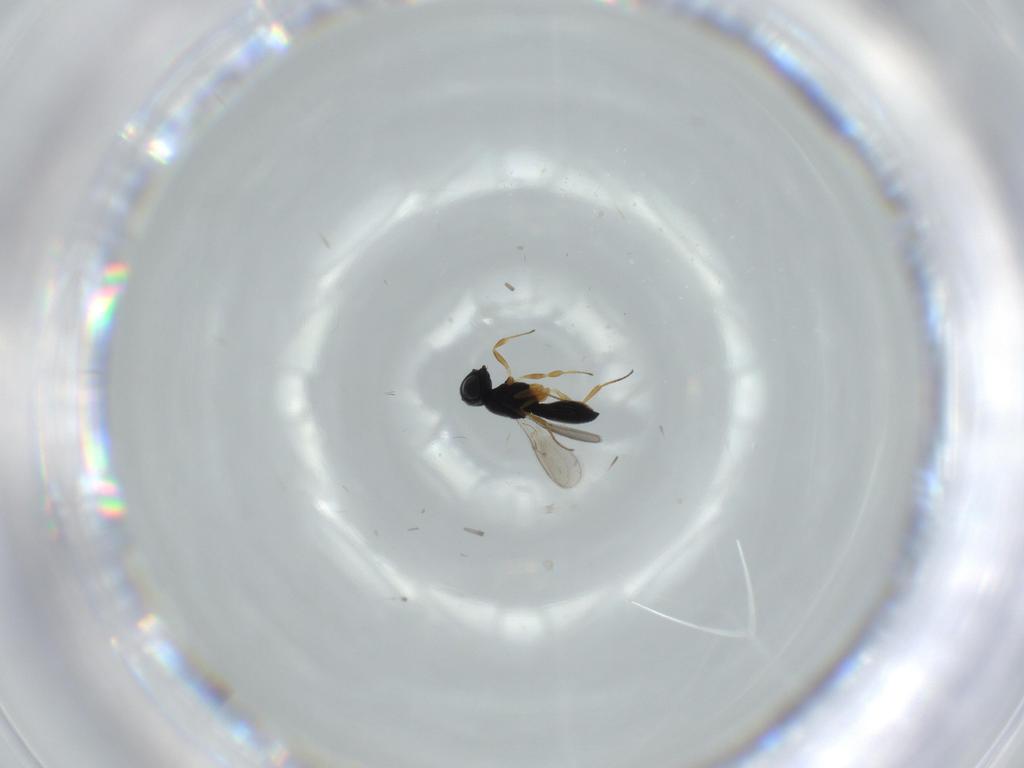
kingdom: Animalia
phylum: Arthropoda
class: Insecta
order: Hymenoptera
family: Scelionidae
